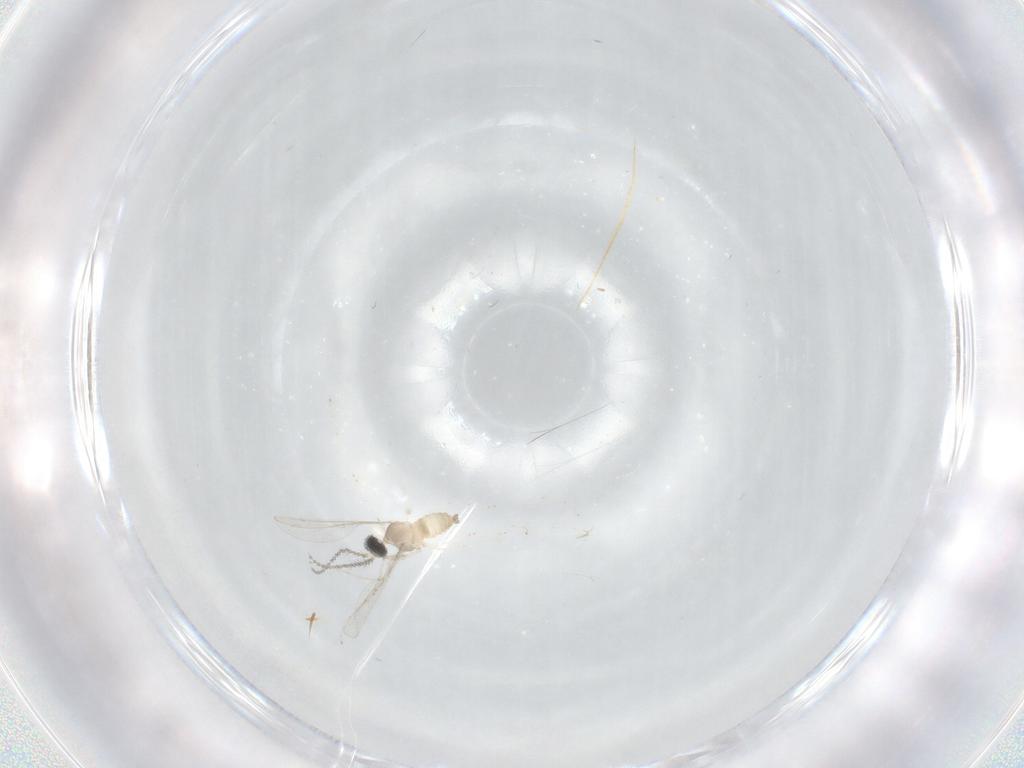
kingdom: Animalia
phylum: Arthropoda
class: Insecta
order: Diptera
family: Cecidomyiidae
